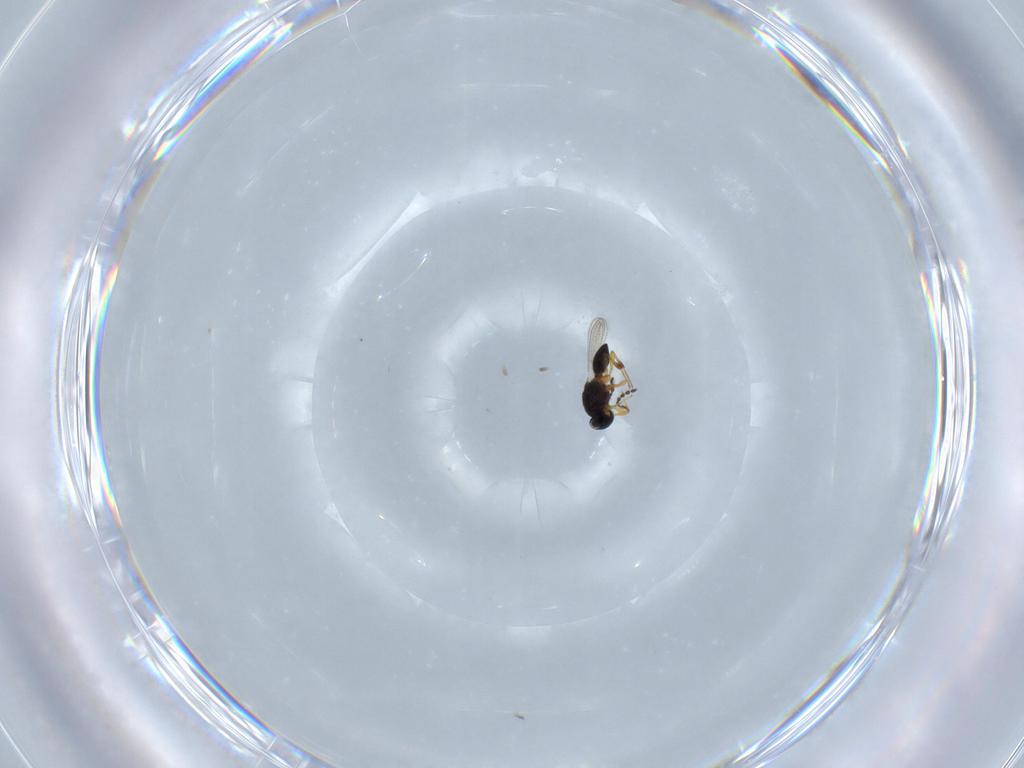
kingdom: Animalia
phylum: Arthropoda
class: Insecta
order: Hymenoptera
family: Platygastridae
